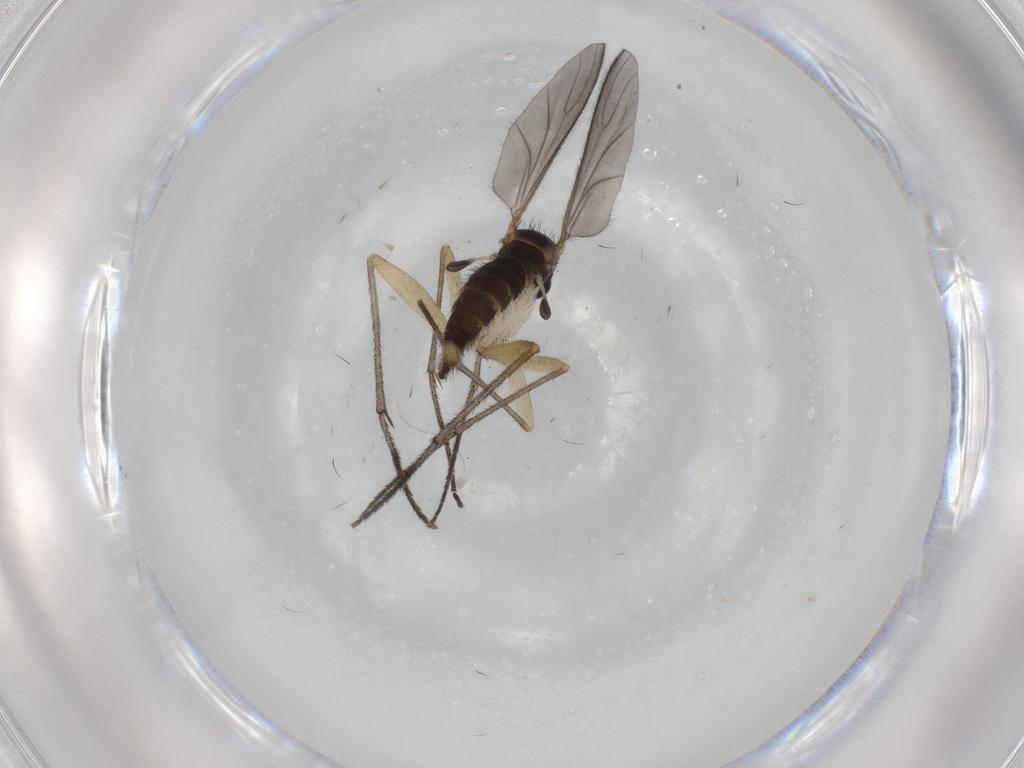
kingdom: Animalia
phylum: Arthropoda
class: Insecta
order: Diptera
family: Sciaridae
